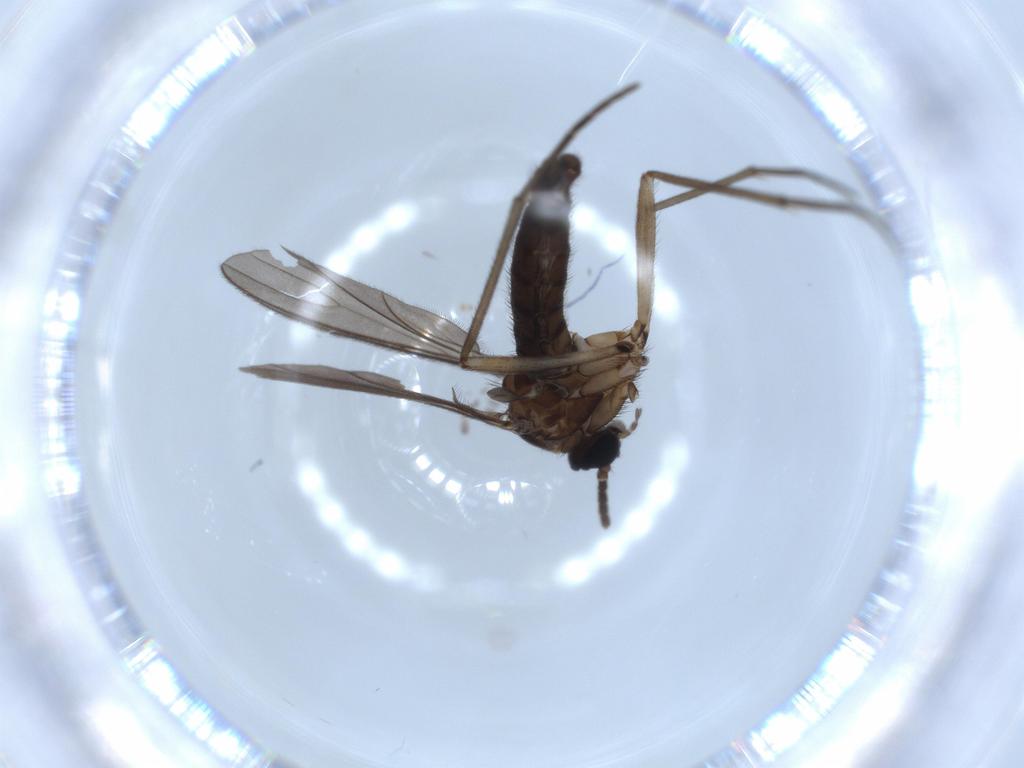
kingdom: Animalia
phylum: Arthropoda
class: Insecta
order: Diptera
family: Sciaridae
